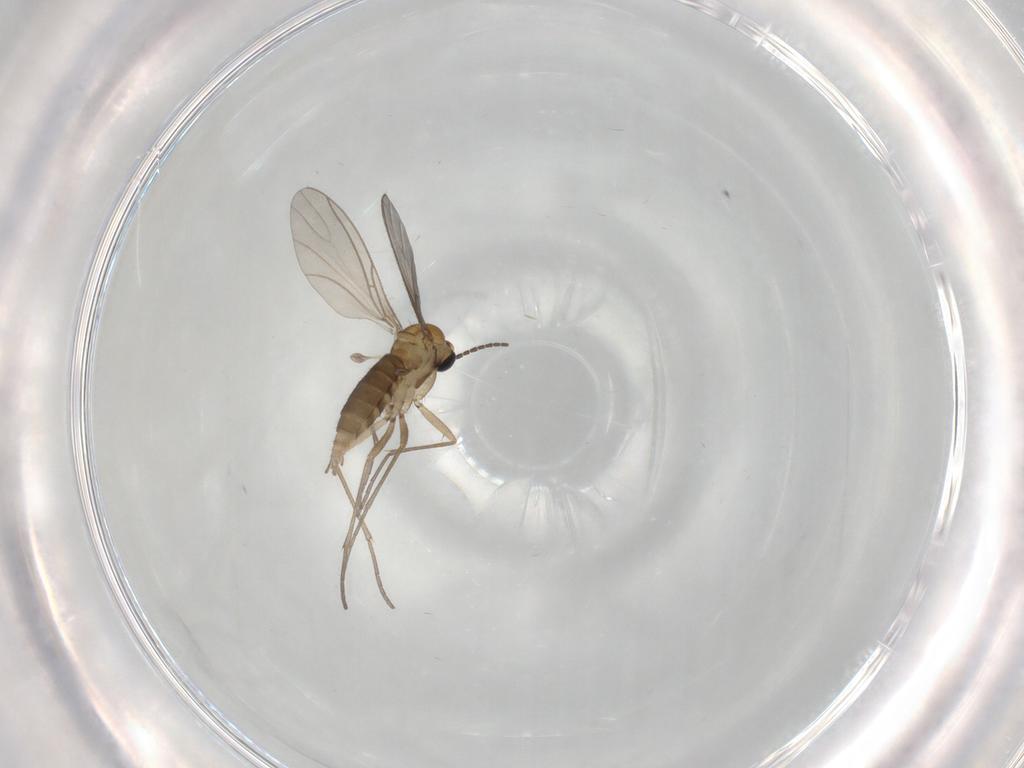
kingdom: Animalia
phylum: Arthropoda
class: Insecta
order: Diptera
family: Sciaridae
